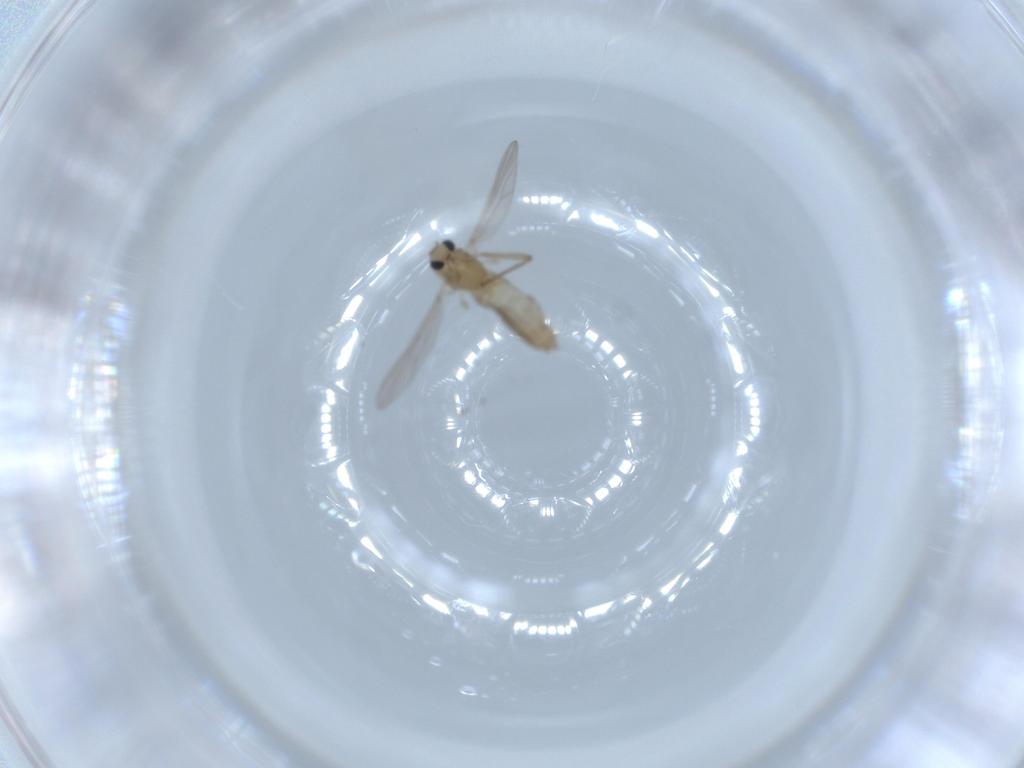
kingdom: Animalia
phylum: Arthropoda
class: Insecta
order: Diptera
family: Chironomidae
